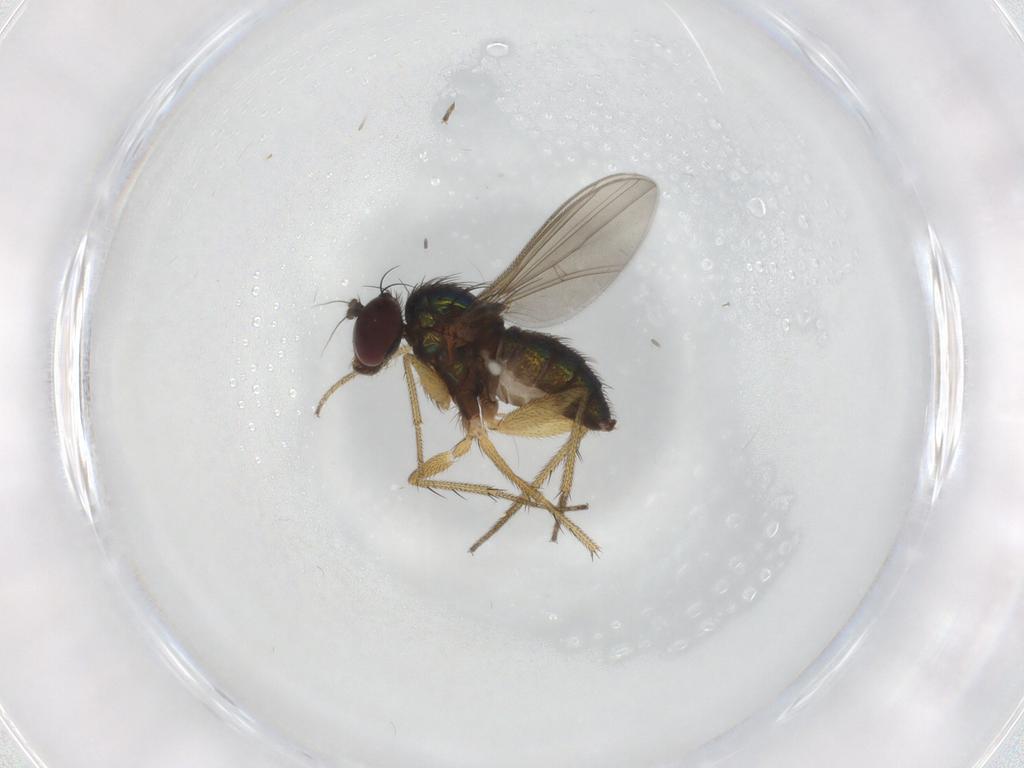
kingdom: Animalia
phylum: Arthropoda
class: Insecta
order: Diptera
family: Dolichopodidae
